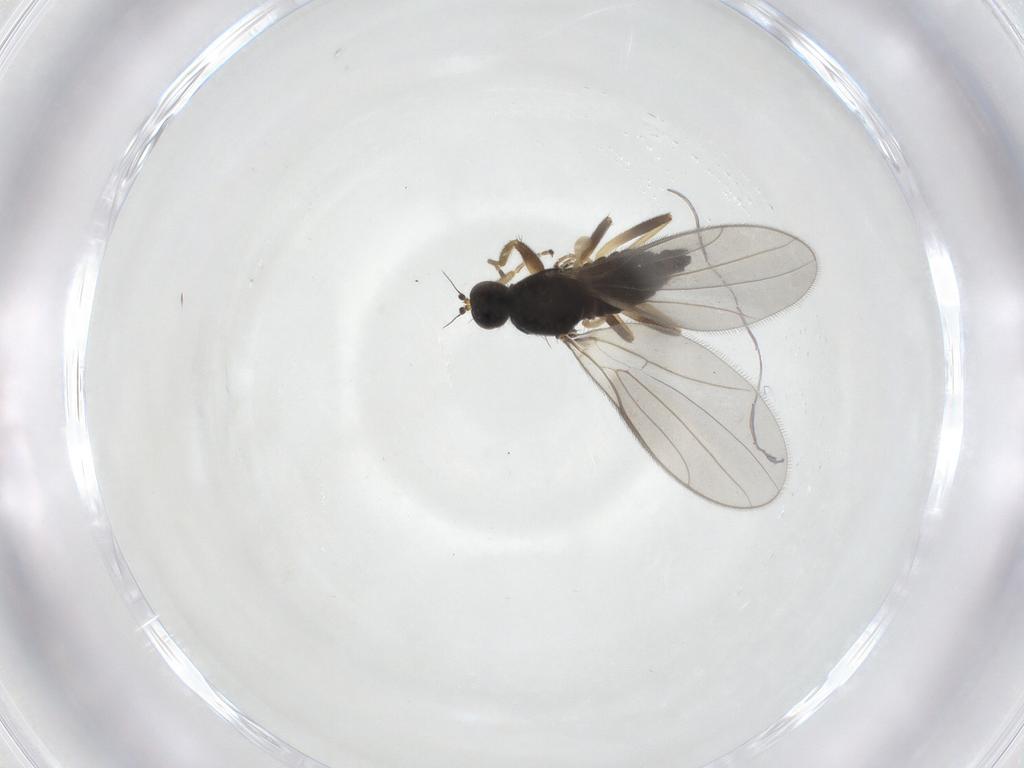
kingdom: Animalia
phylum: Arthropoda
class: Insecta
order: Diptera
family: Hybotidae
